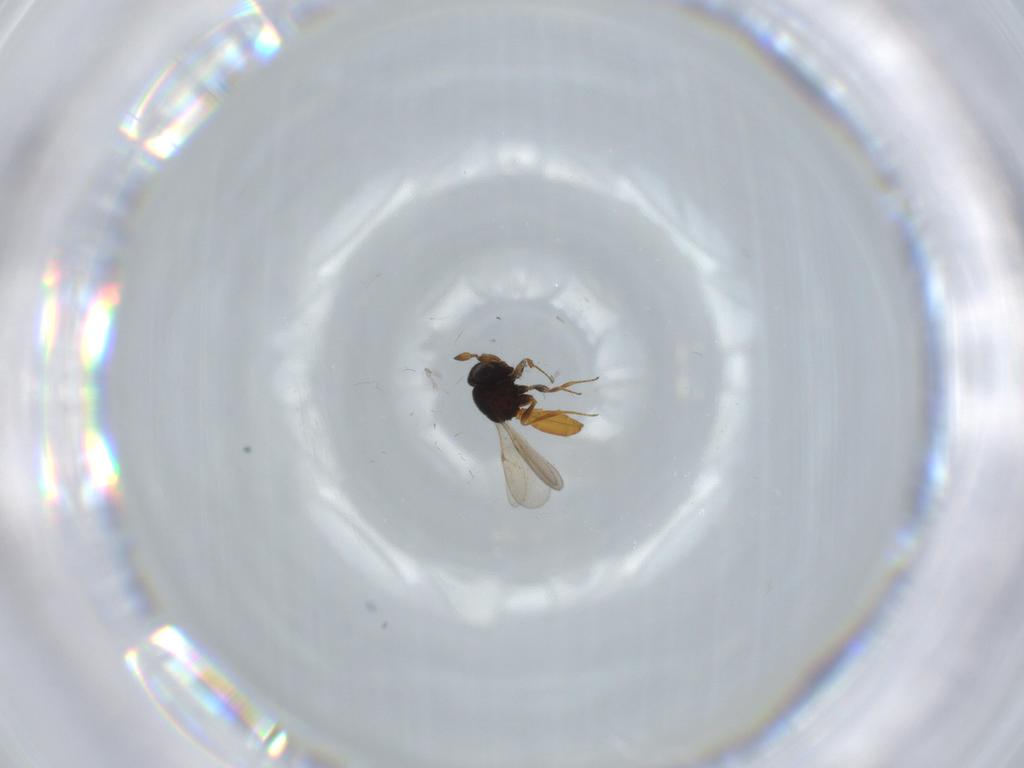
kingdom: Animalia
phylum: Arthropoda
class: Insecta
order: Hymenoptera
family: Scelionidae
